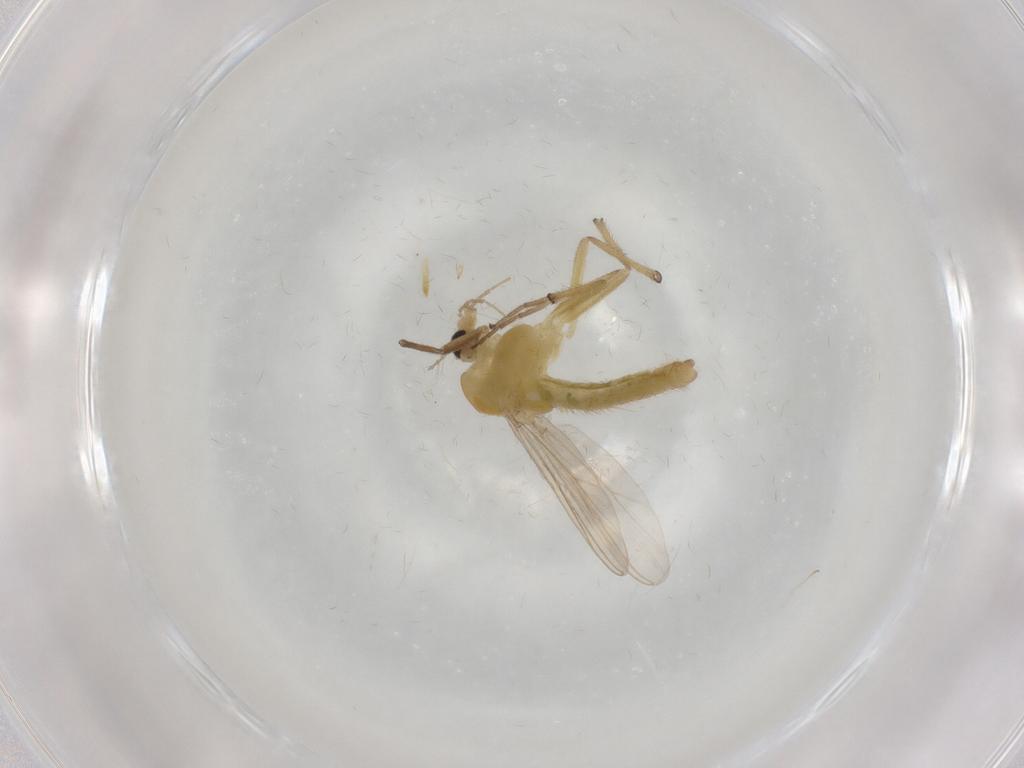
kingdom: Animalia
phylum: Arthropoda
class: Insecta
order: Diptera
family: Chironomidae
